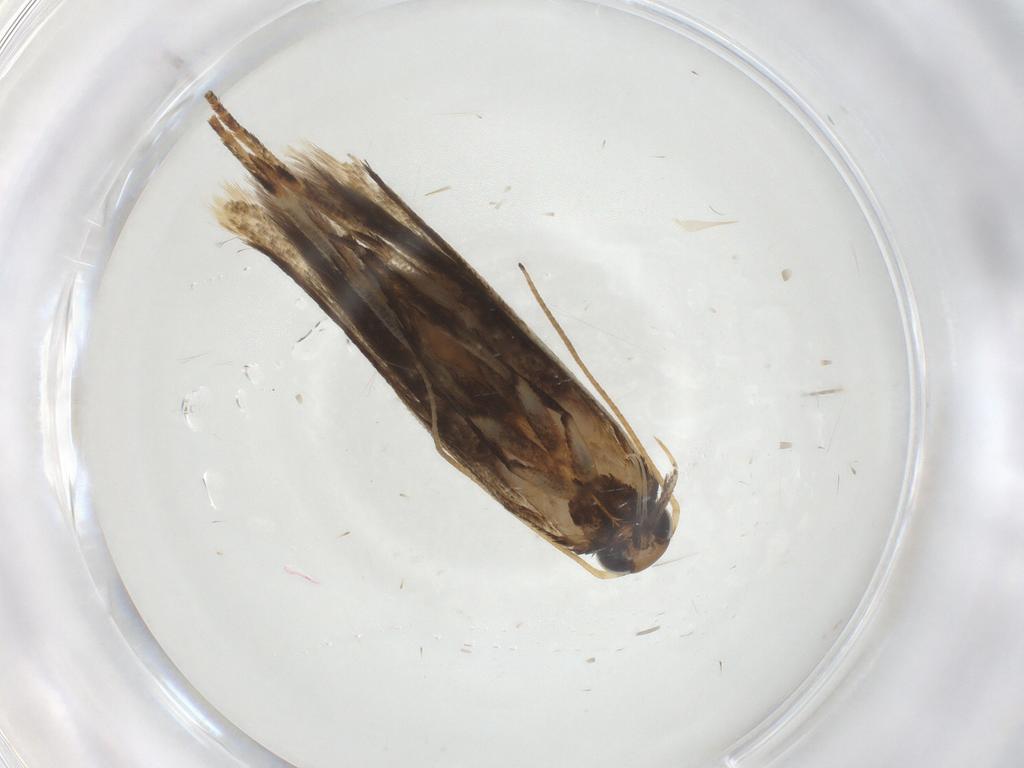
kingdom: Animalia
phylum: Arthropoda
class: Insecta
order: Lepidoptera
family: Gelechiidae
